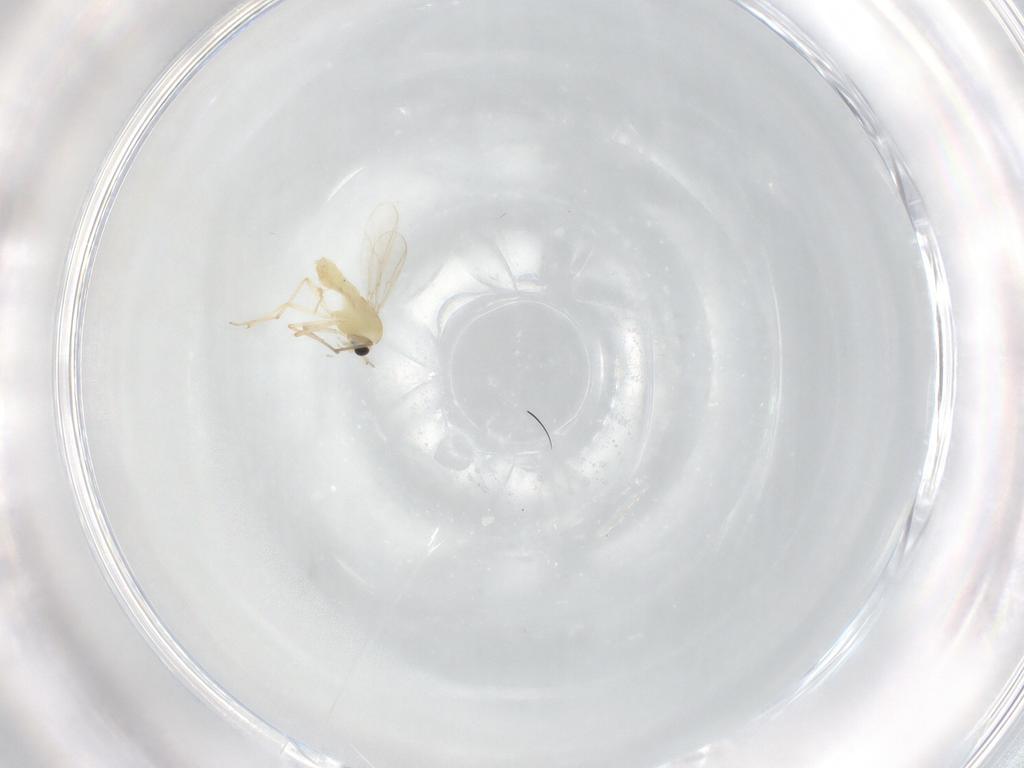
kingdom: Animalia
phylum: Arthropoda
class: Insecta
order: Diptera
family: Chironomidae
